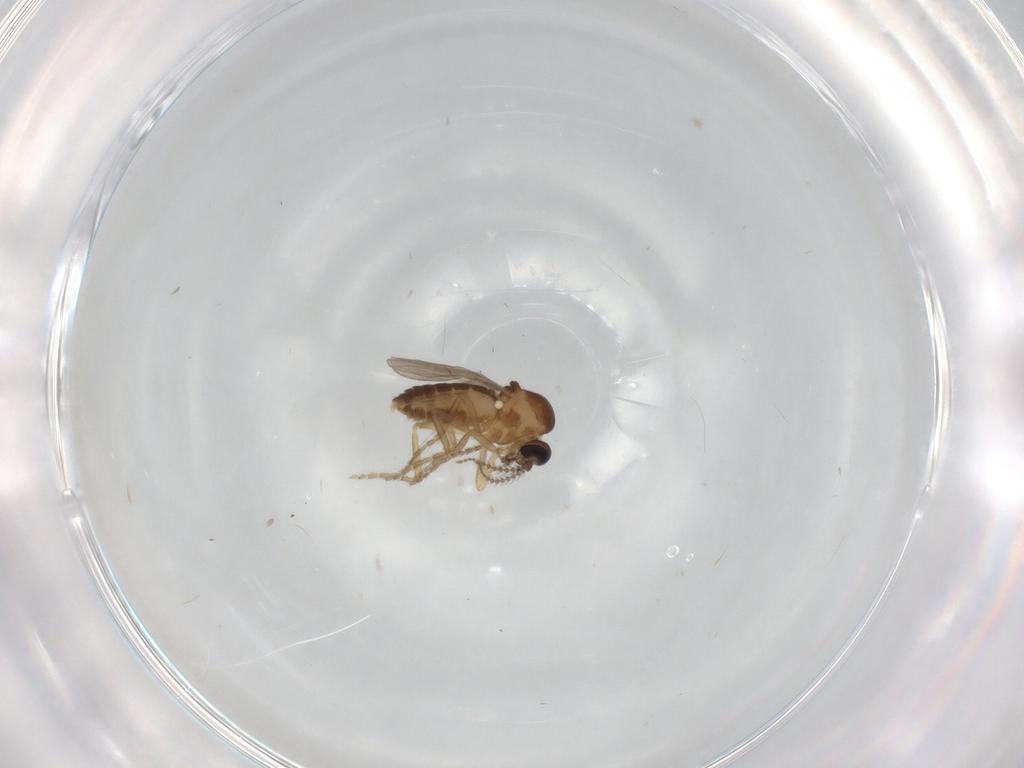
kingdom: Animalia
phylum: Arthropoda
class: Insecta
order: Diptera
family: Ceratopogonidae
